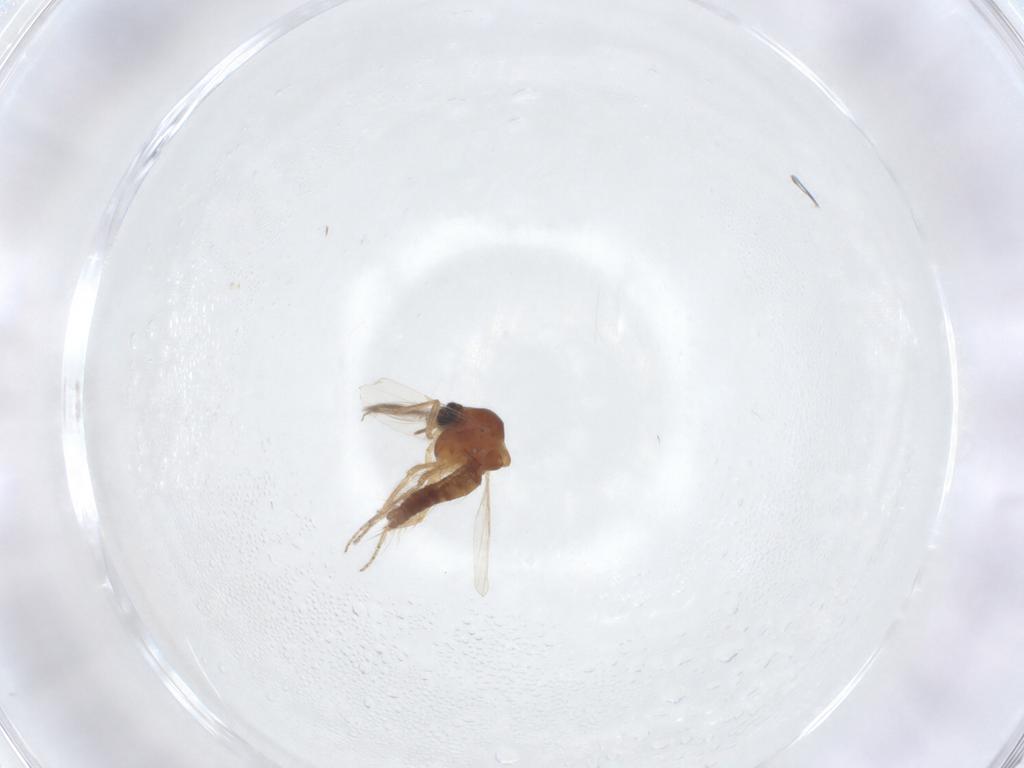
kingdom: Animalia
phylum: Arthropoda
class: Insecta
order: Diptera
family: Ceratopogonidae
